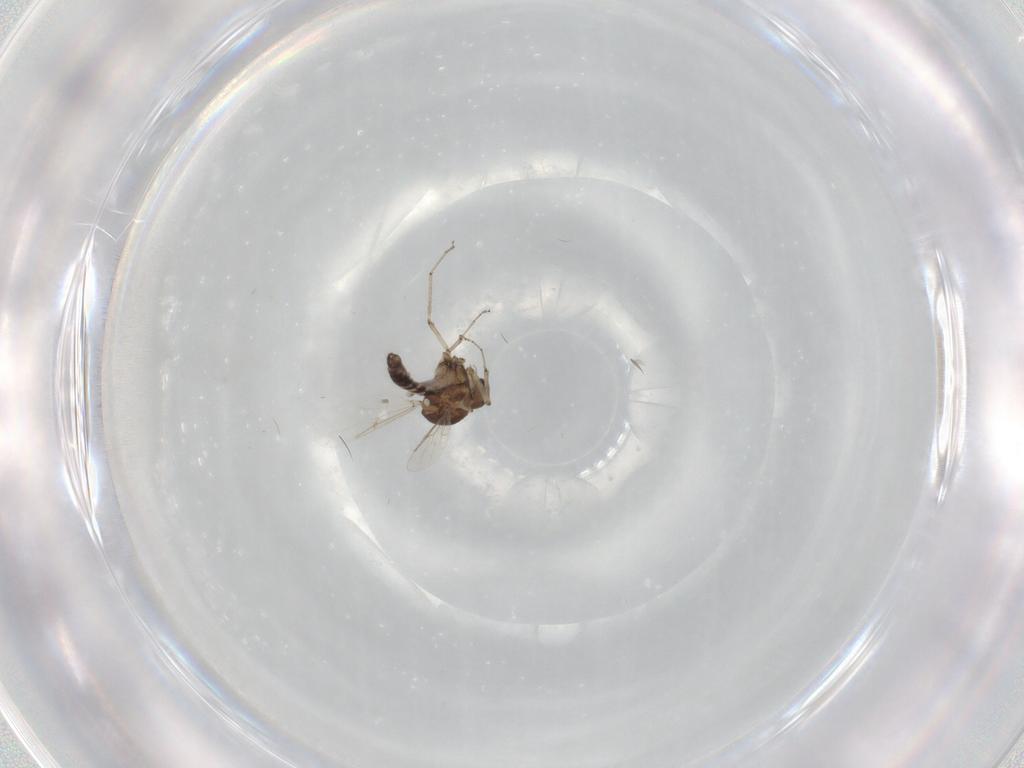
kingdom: Animalia
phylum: Arthropoda
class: Insecta
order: Diptera
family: Ceratopogonidae
